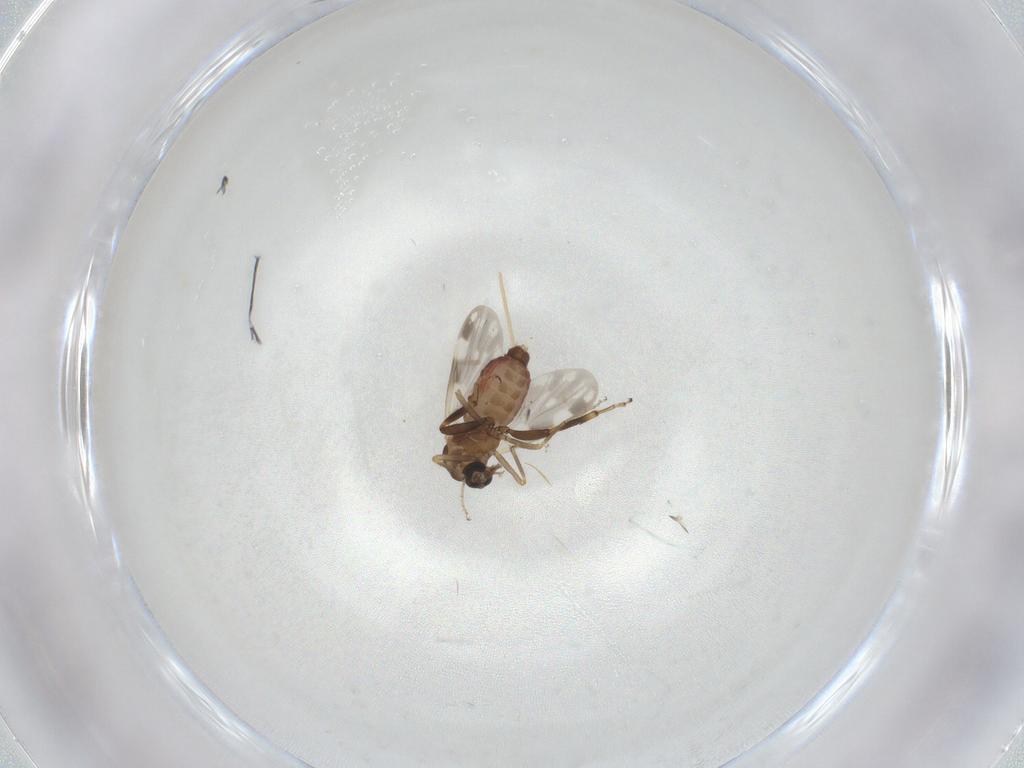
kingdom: Animalia
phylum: Arthropoda
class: Insecta
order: Diptera
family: Ceratopogonidae
